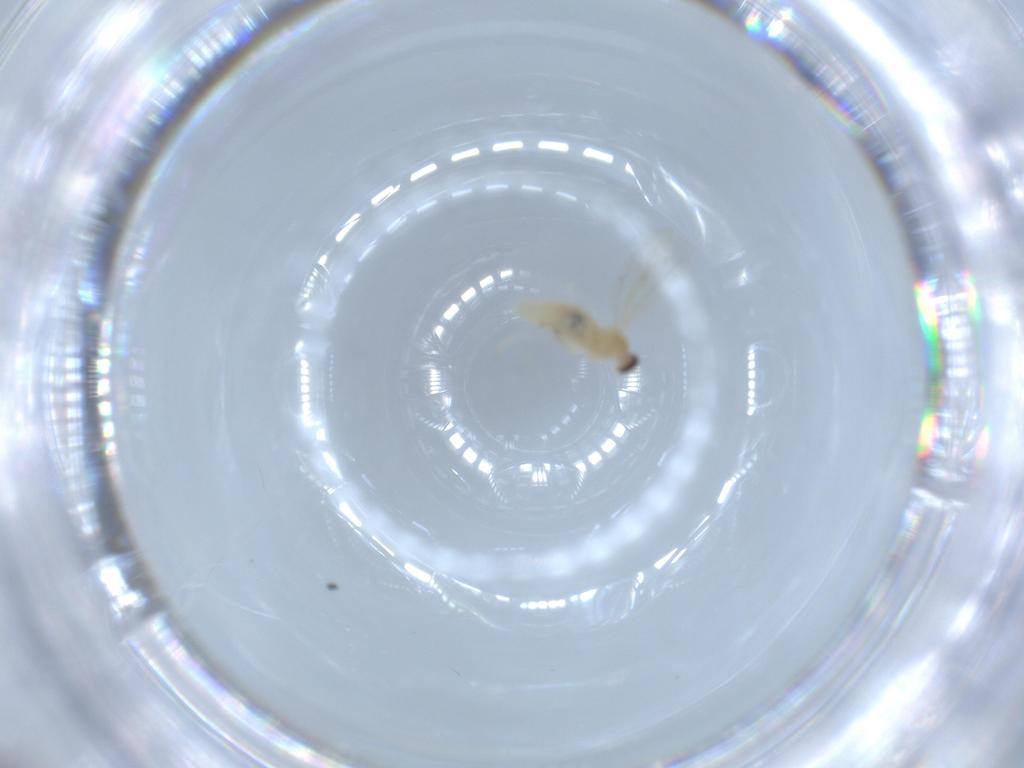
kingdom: Animalia
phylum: Arthropoda
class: Insecta
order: Diptera
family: Cecidomyiidae
